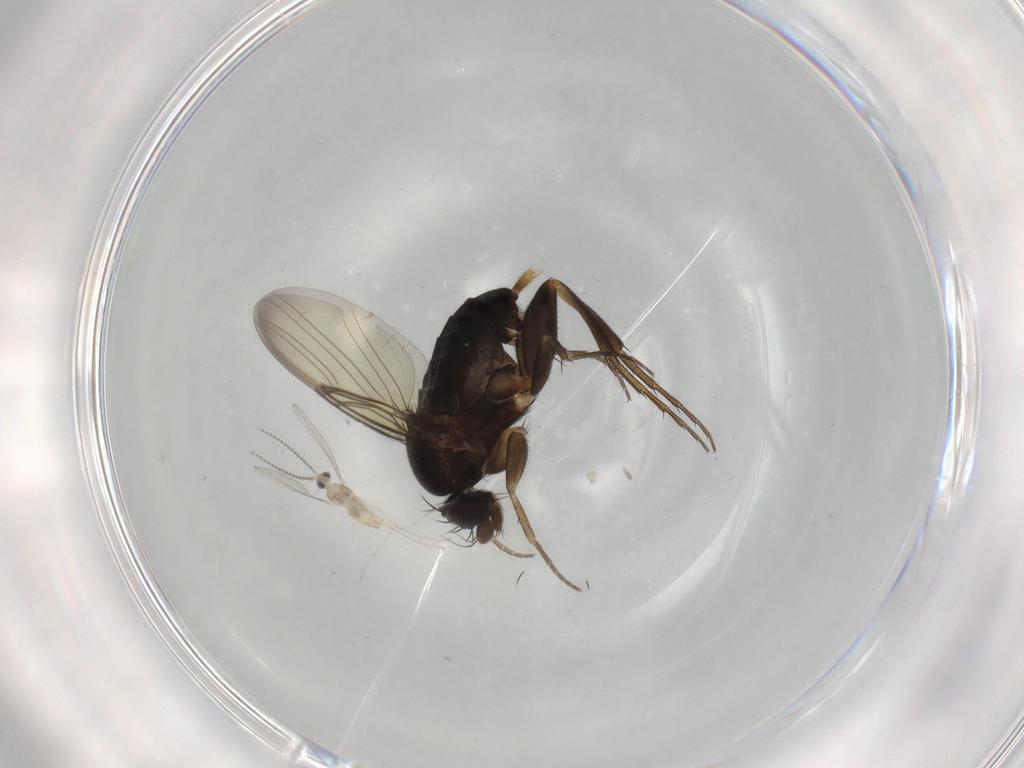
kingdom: Animalia
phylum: Arthropoda
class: Insecta
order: Diptera
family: Phoridae
